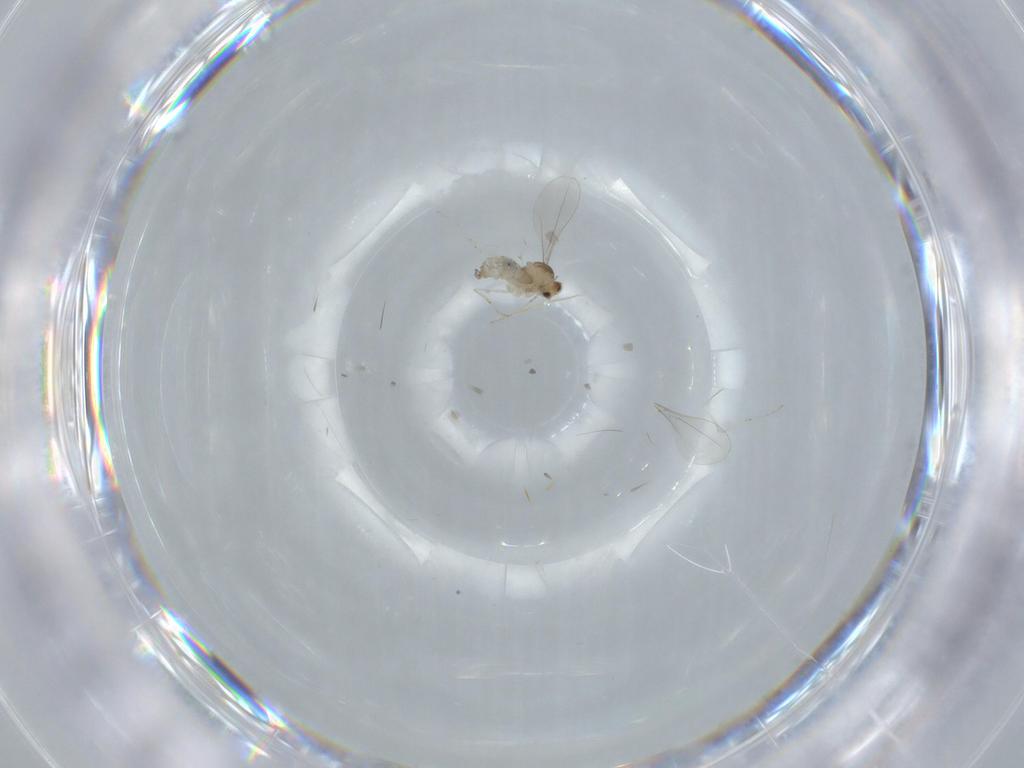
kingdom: Animalia
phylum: Arthropoda
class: Insecta
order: Diptera
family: Cecidomyiidae
